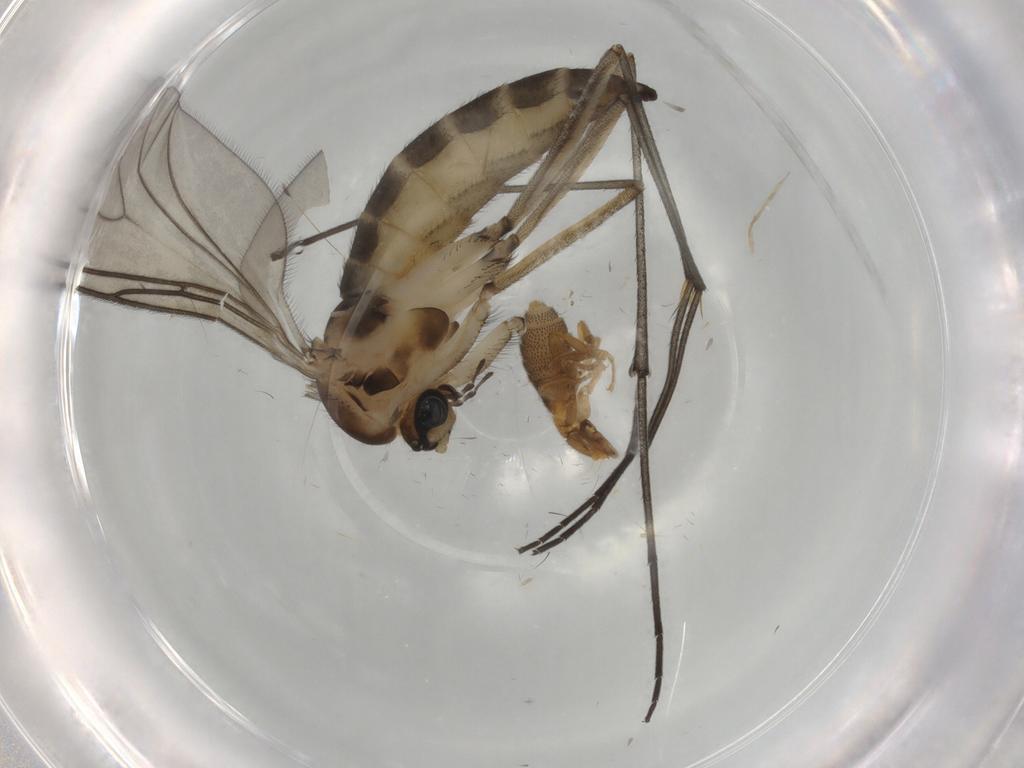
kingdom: Animalia
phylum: Arthropoda
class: Insecta
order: Diptera
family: Sciaridae
